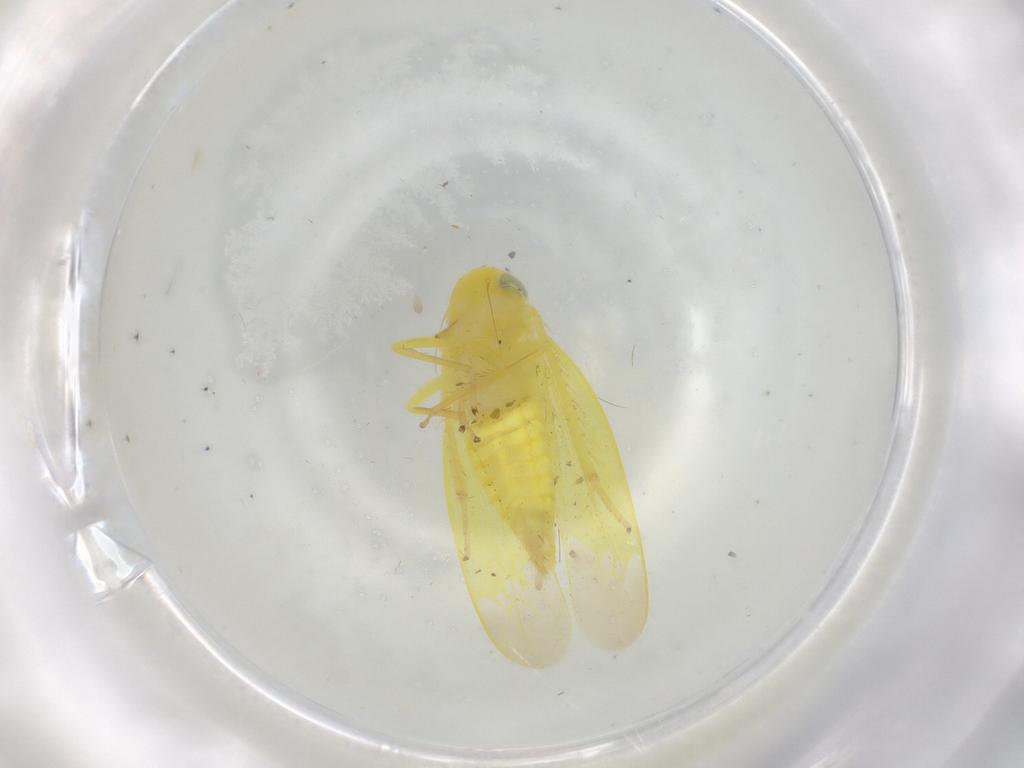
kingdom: Animalia
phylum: Arthropoda
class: Insecta
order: Hemiptera
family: Cicadellidae
